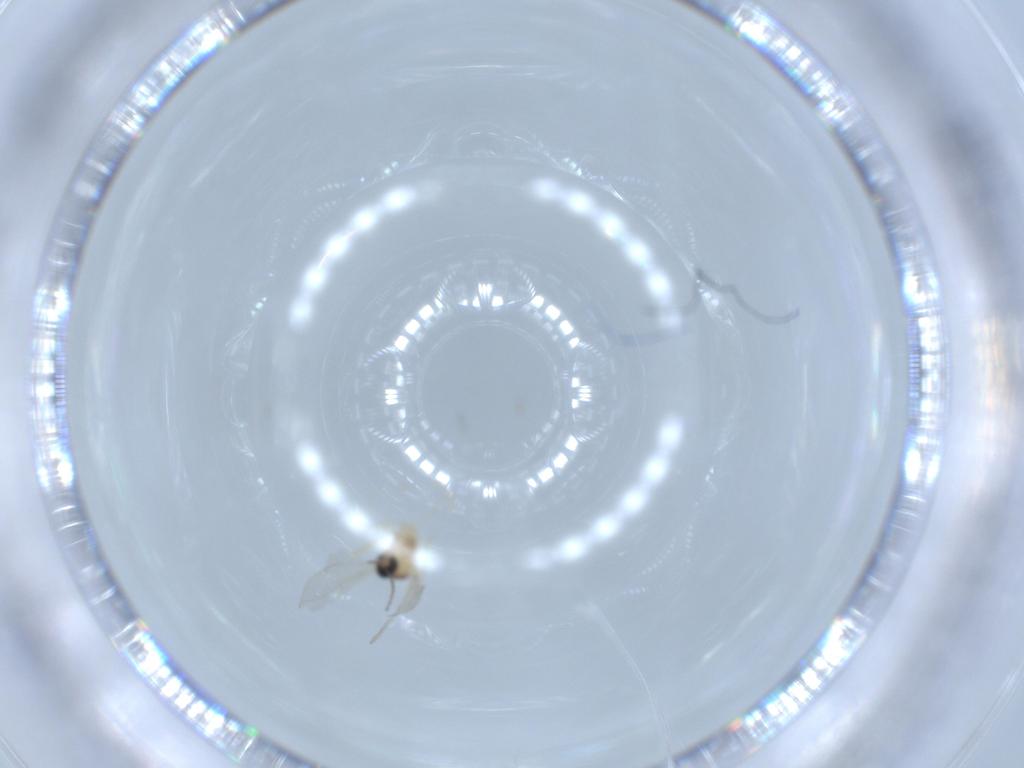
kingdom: Animalia
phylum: Arthropoda
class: Insecta
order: Diptera
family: Cecidomyiidae
